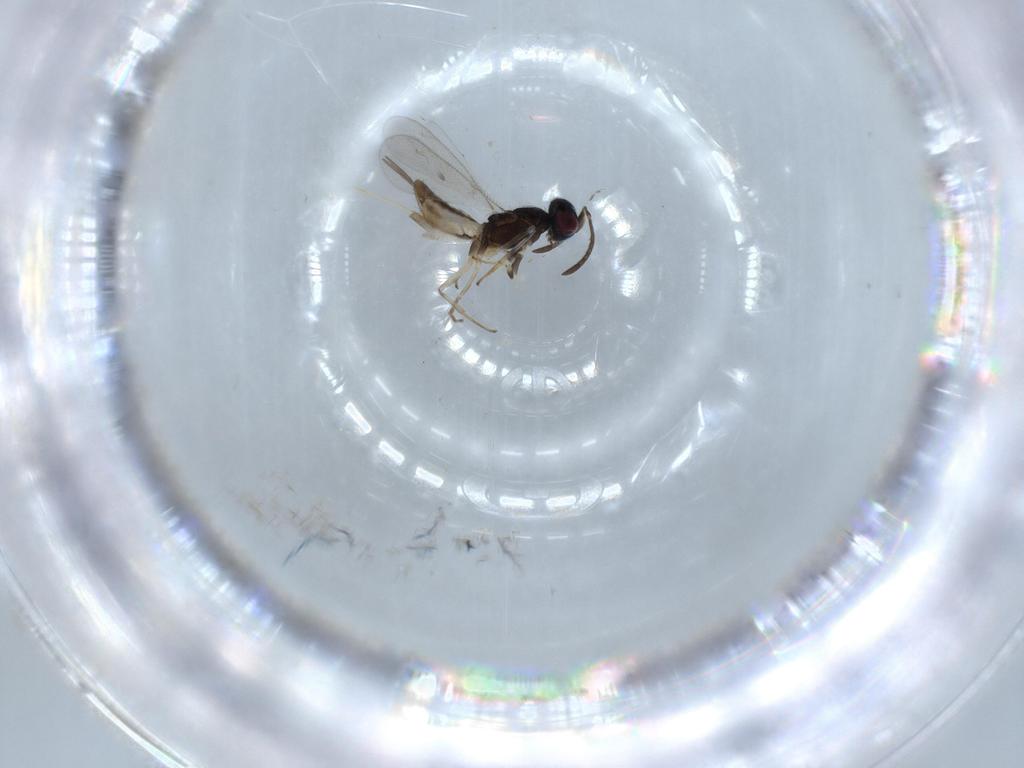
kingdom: Animalia
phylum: Arthropoda
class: Insecta
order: Hymenoptera
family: Eupelmidae
